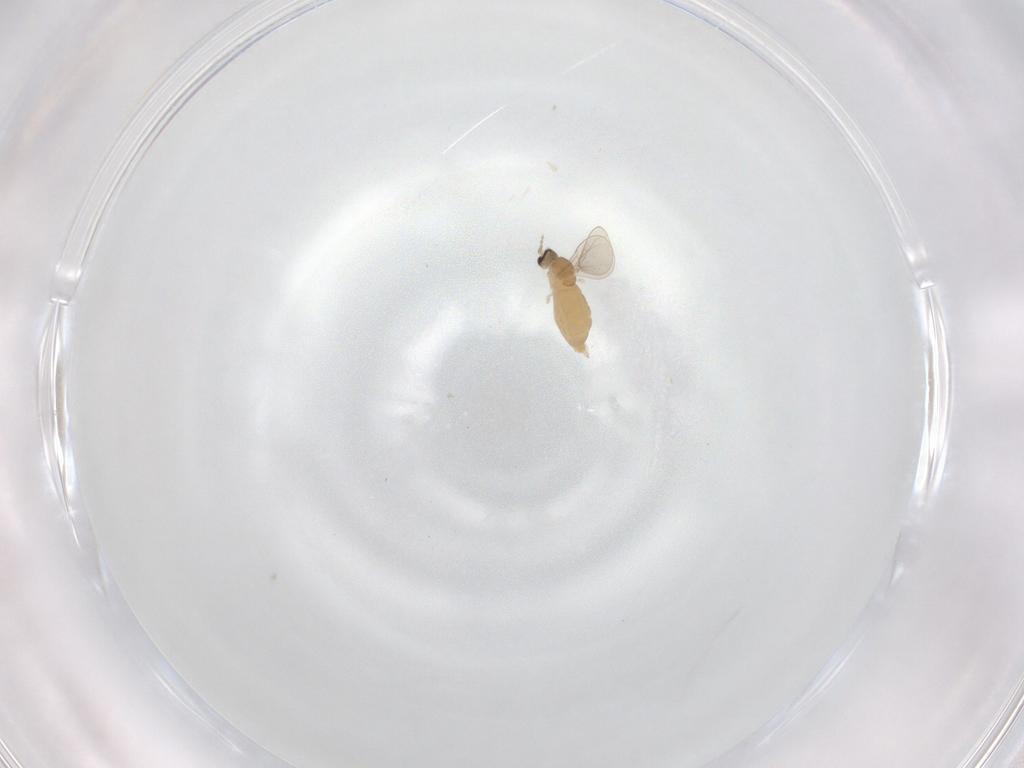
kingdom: Animalia
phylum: Arthropoda
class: Insecta
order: Diptera
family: Cecidomyiidae
